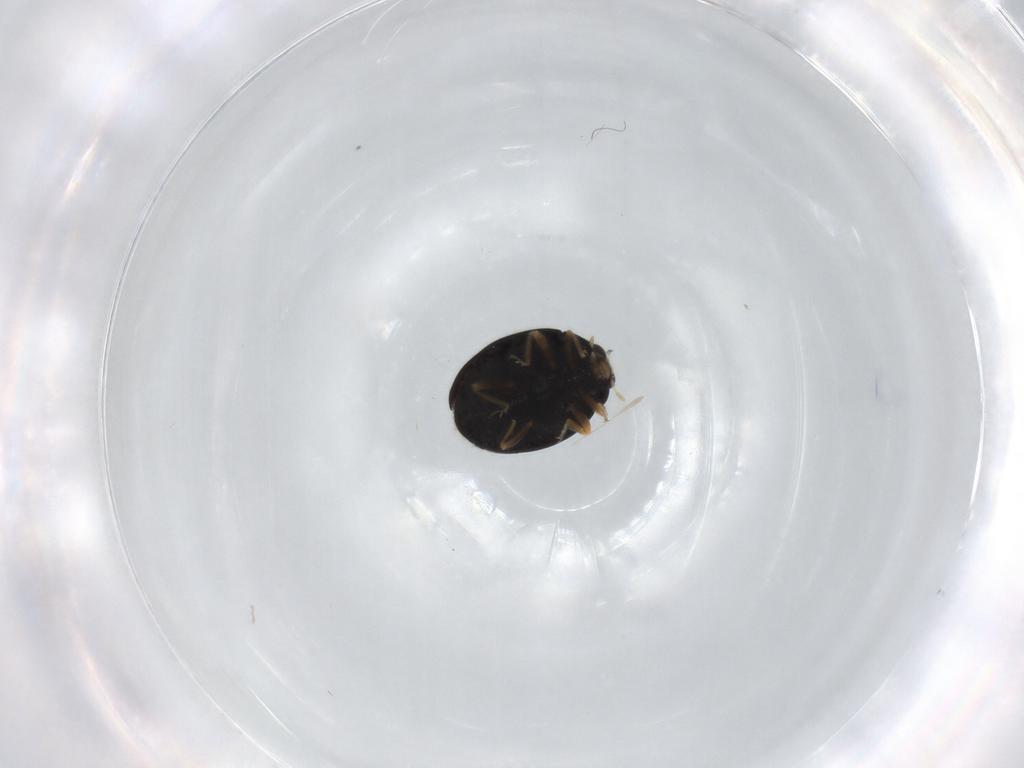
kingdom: Animalia
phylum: Arthropoda
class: Insecta
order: Coleoptera
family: Coccinellidae
